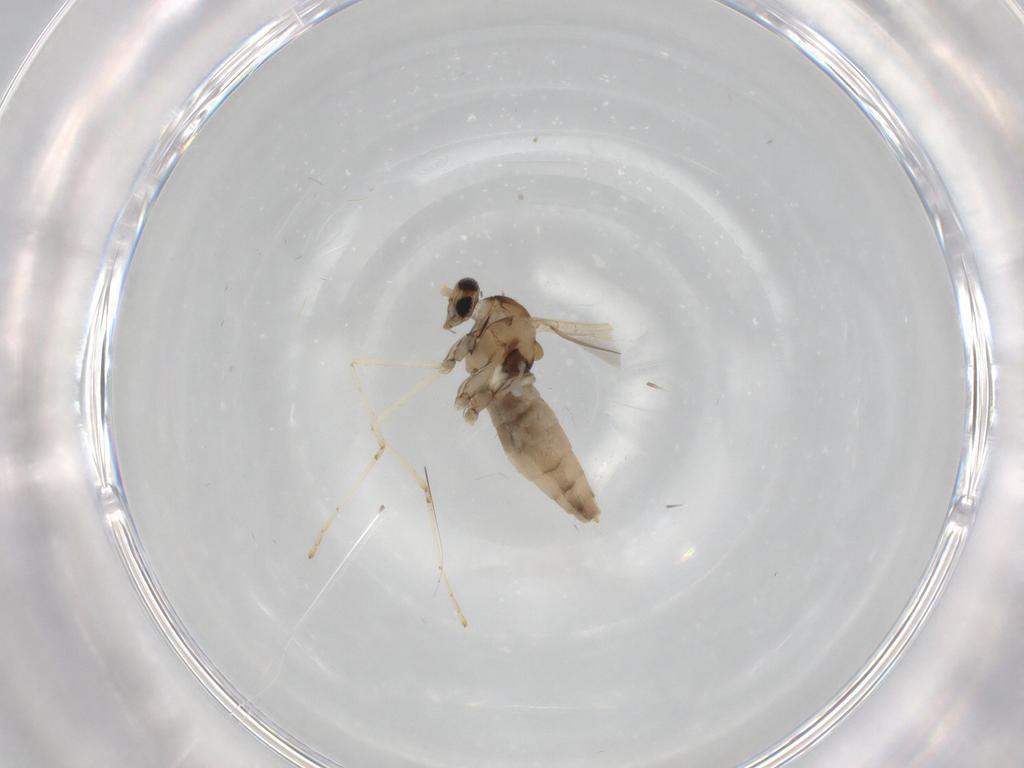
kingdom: Animalia
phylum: Arthropoda
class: Insecta
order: Diptera
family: Cecidomyiidae
